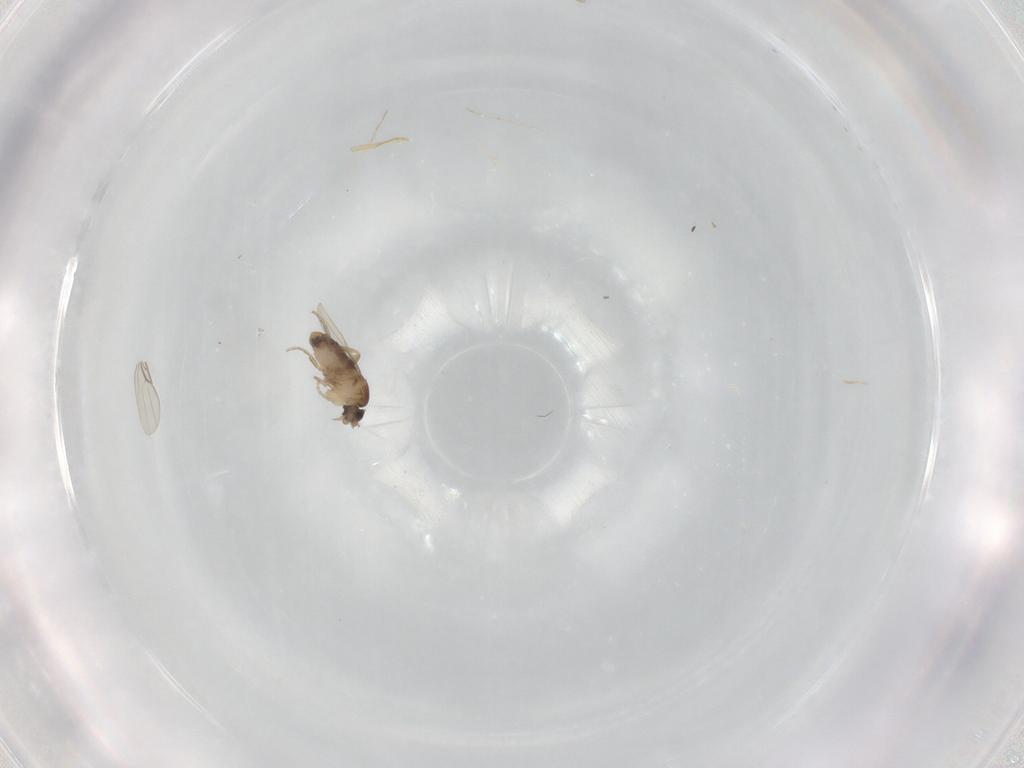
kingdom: Animalia
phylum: Arthropoda
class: Insecta
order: Diptera
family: Phoridae
